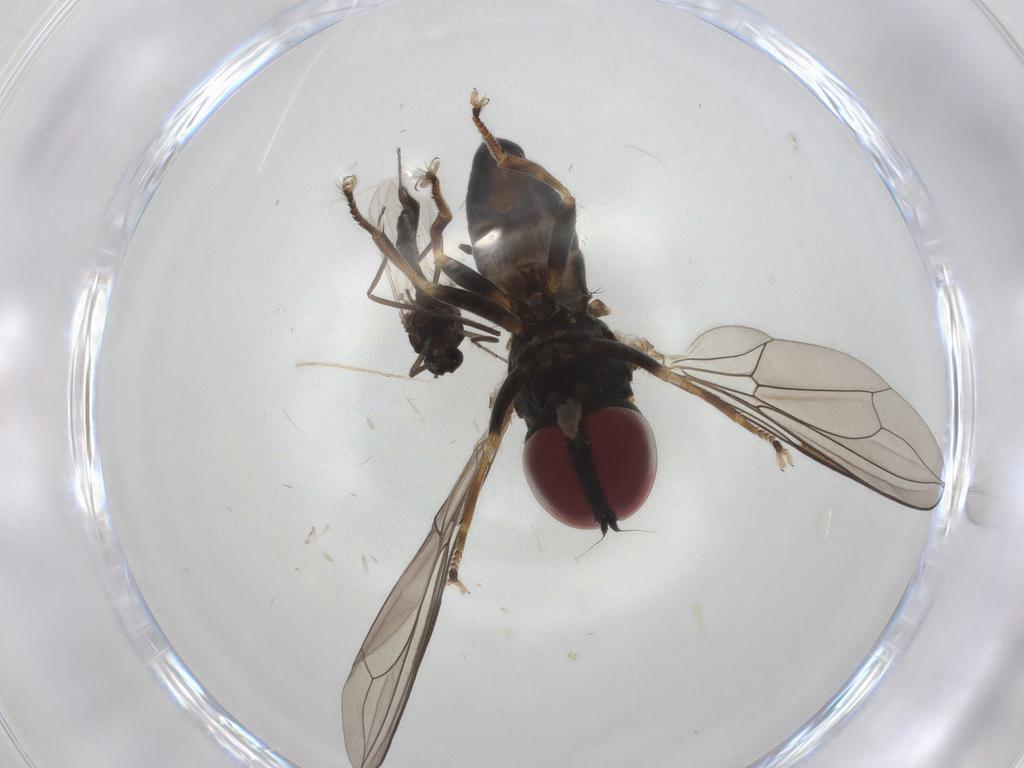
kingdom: Animalia
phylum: Arthropoda
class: Insecta
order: Diptera
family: Pipunculidae
